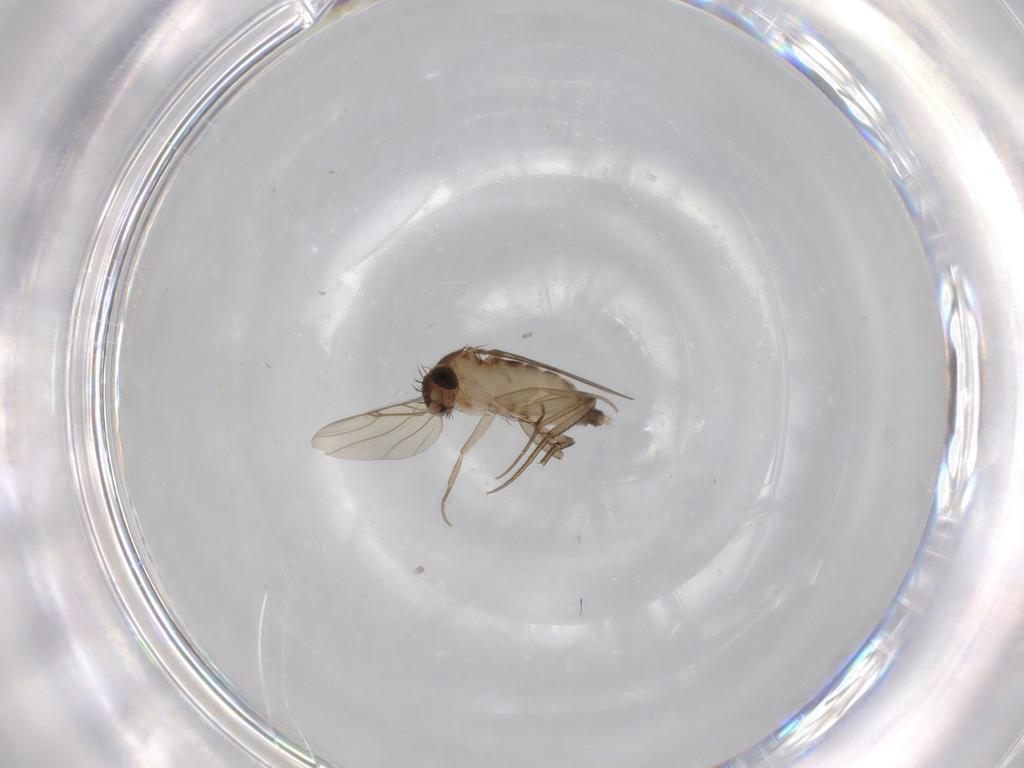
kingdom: Animalia
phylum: Arthropoda
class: Insecta
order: Diptera
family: Phoridae
